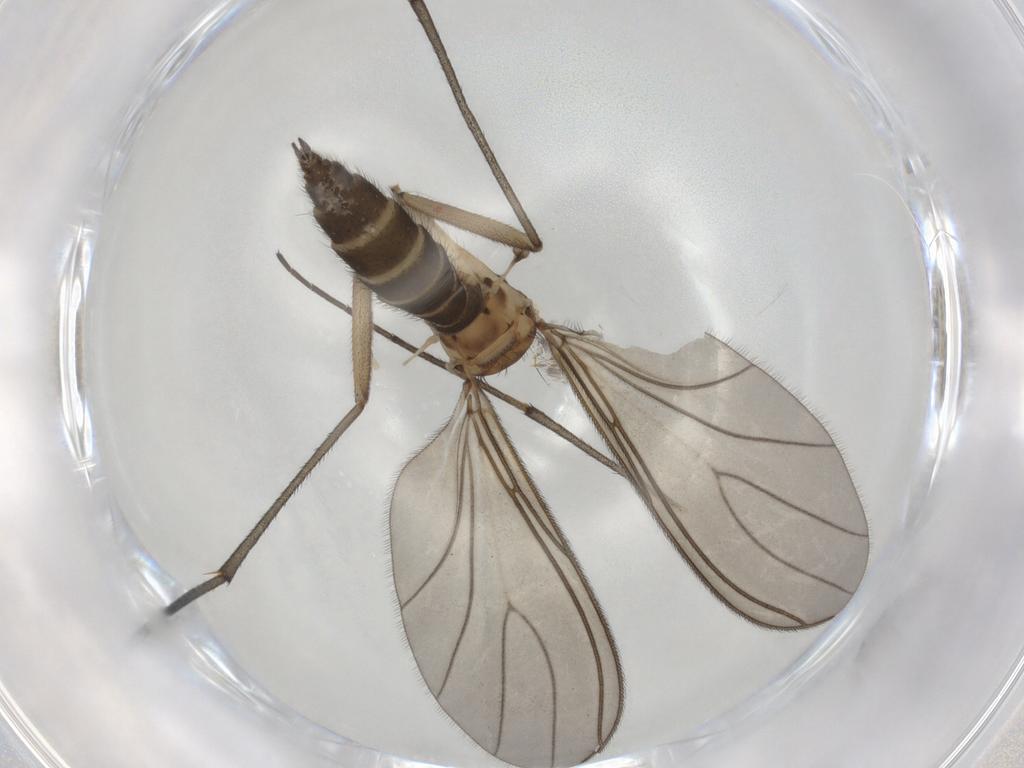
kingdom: Animalia
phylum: Arthropoda
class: Insecta
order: Diptera
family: Sciaridae
